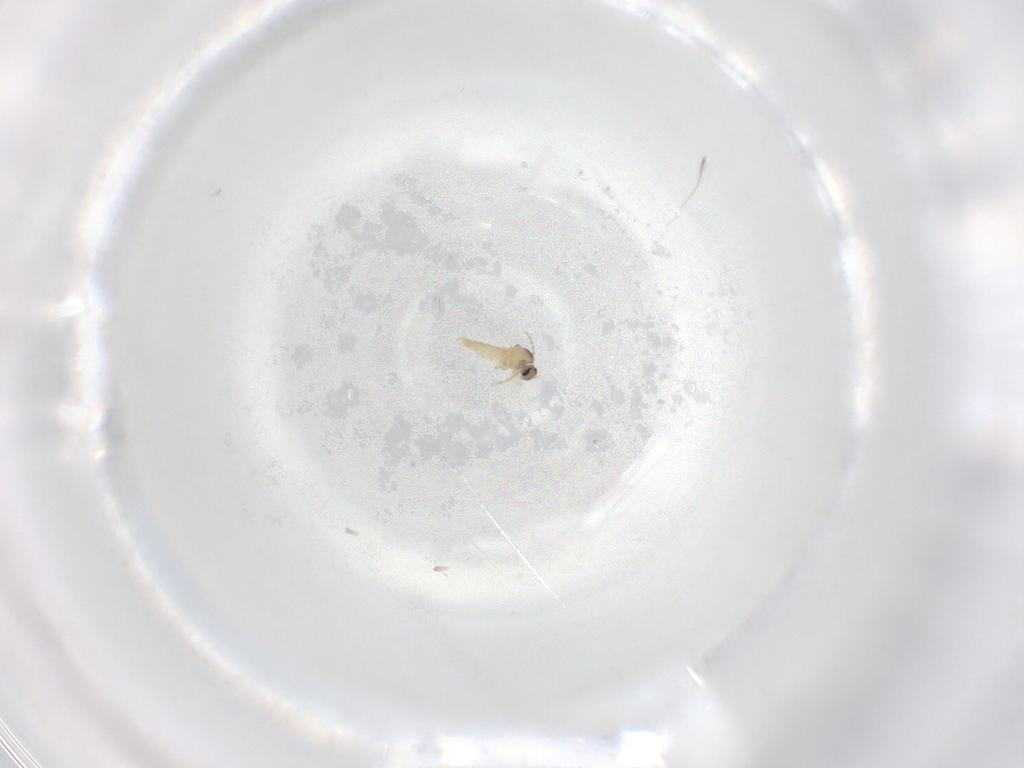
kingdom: Animalia
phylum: Arthropoda
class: Insecta
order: Diptera
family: Cecidomyiidae
